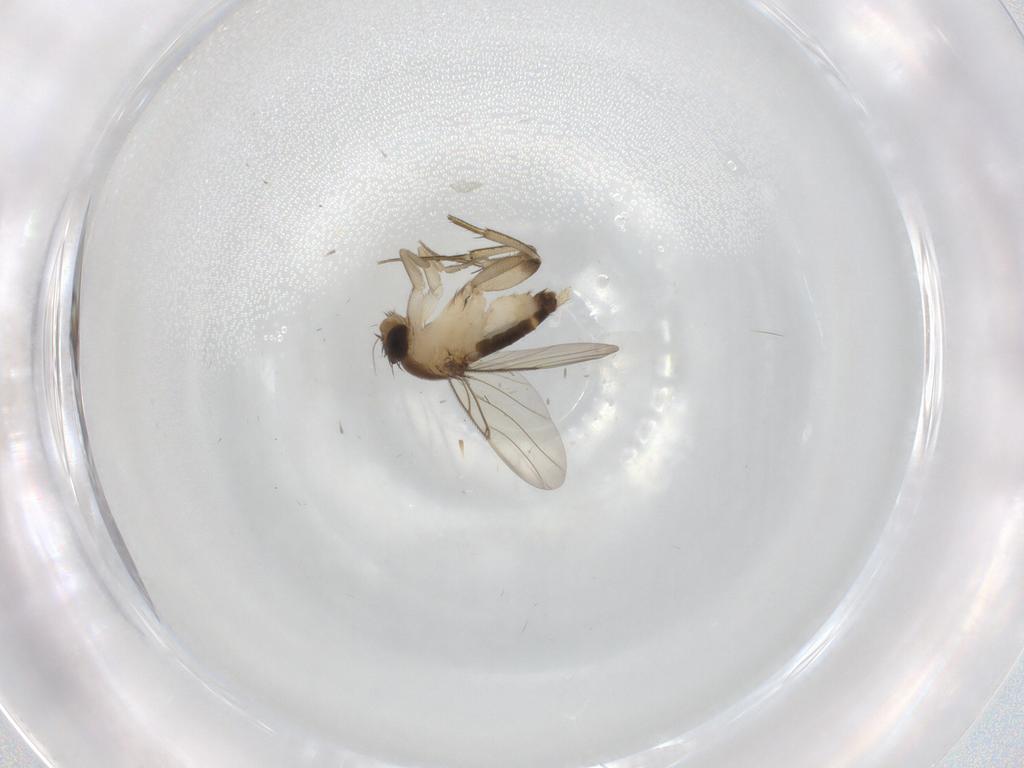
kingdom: Animalia
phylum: Arthropoda
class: Insecta
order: Diptera
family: Phoridae
